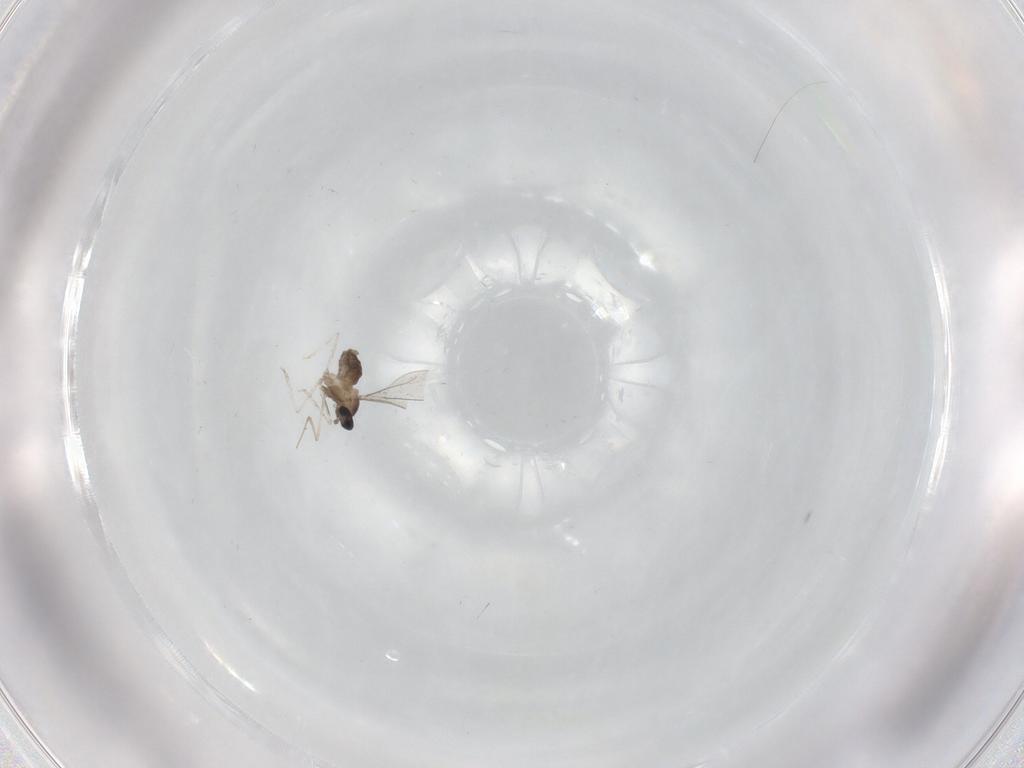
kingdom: Animalia
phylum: Arthropoda
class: Insecta
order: Diptera
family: Cecidomyiidae
